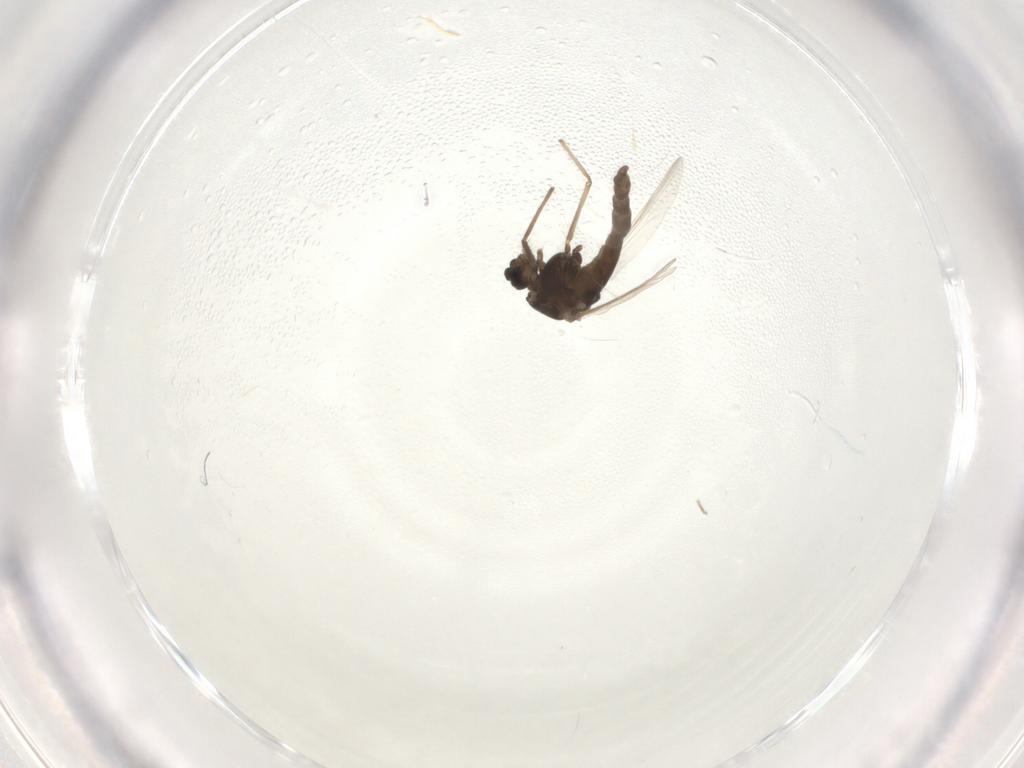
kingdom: Animalia
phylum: Arthropoda
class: Insecta
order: Diptera
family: Chironomidae
